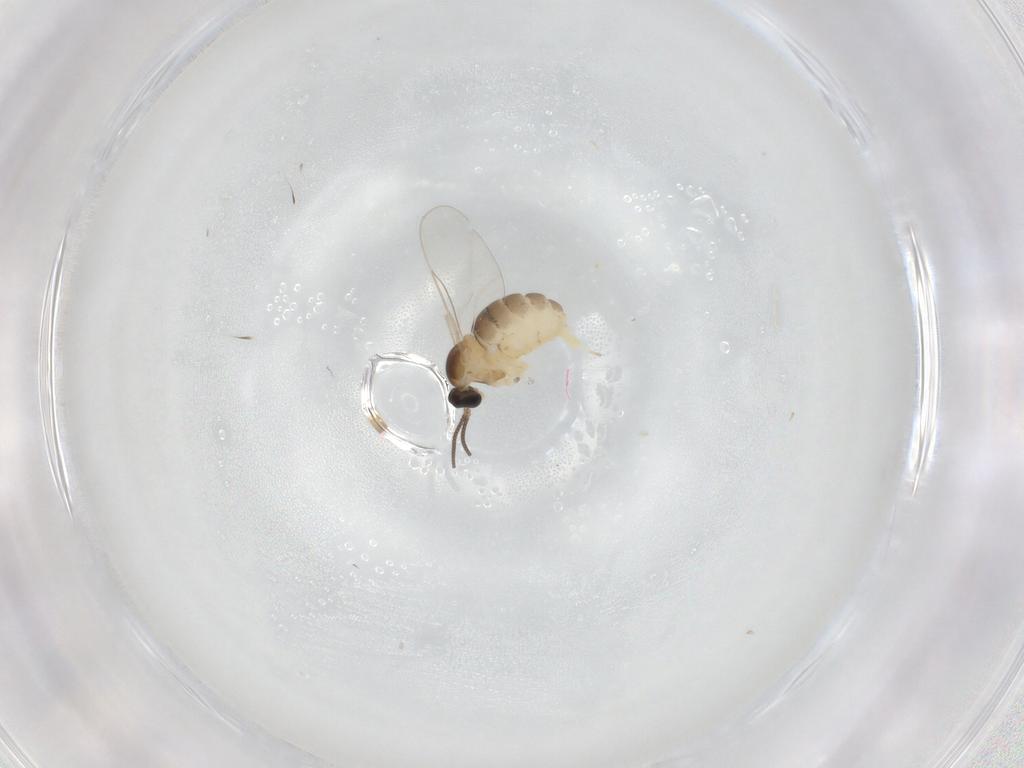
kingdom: Animalia
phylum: Arthropoda
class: Insecta
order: Diptera
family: Cecidomyiidae
